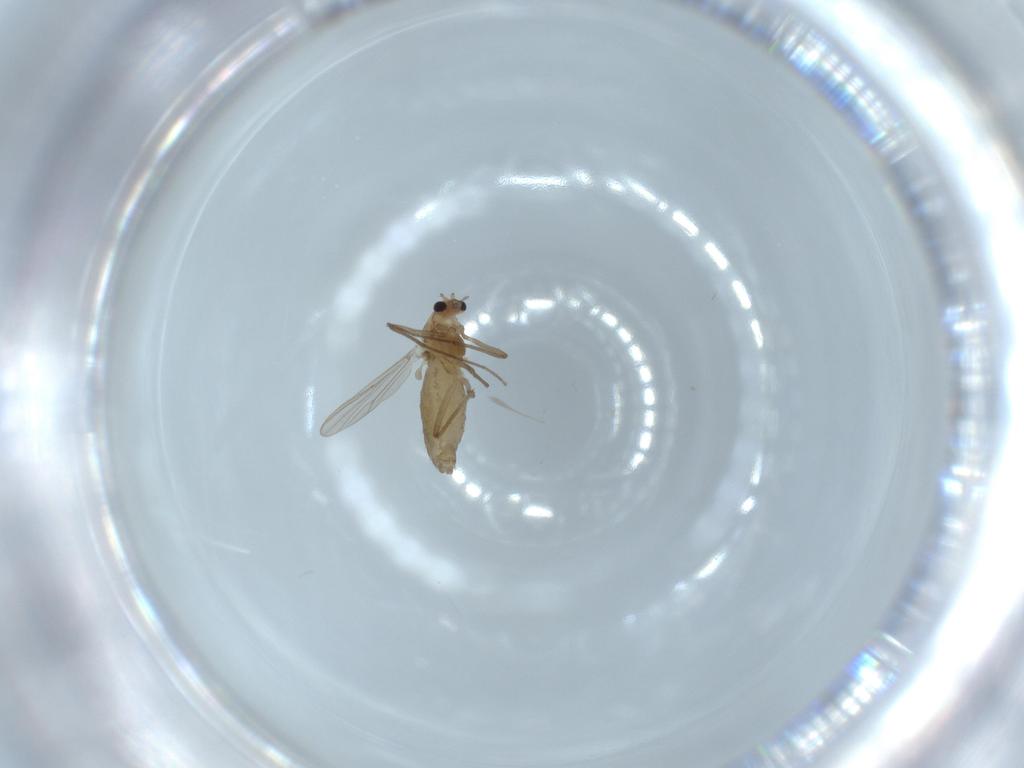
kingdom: Animalia
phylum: Arthropoda
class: Insecta
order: Diptera
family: Chironomidae
